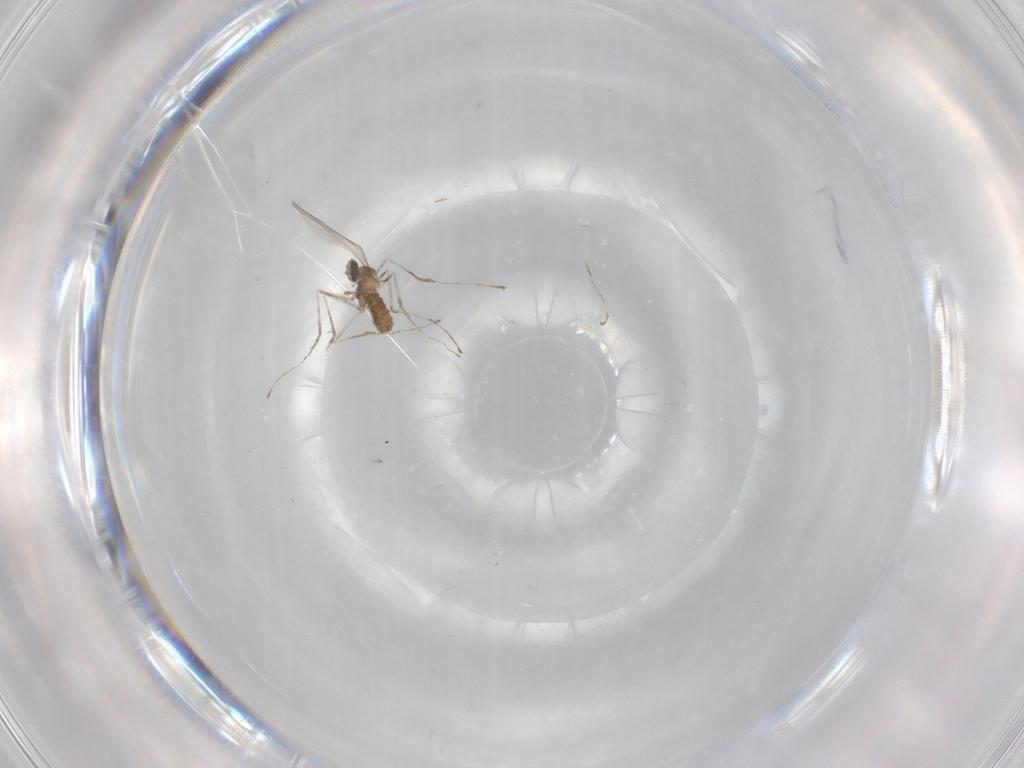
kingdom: Animalia
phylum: Arthropoda
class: Insecta
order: Diptera
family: Cecidomyiidae
